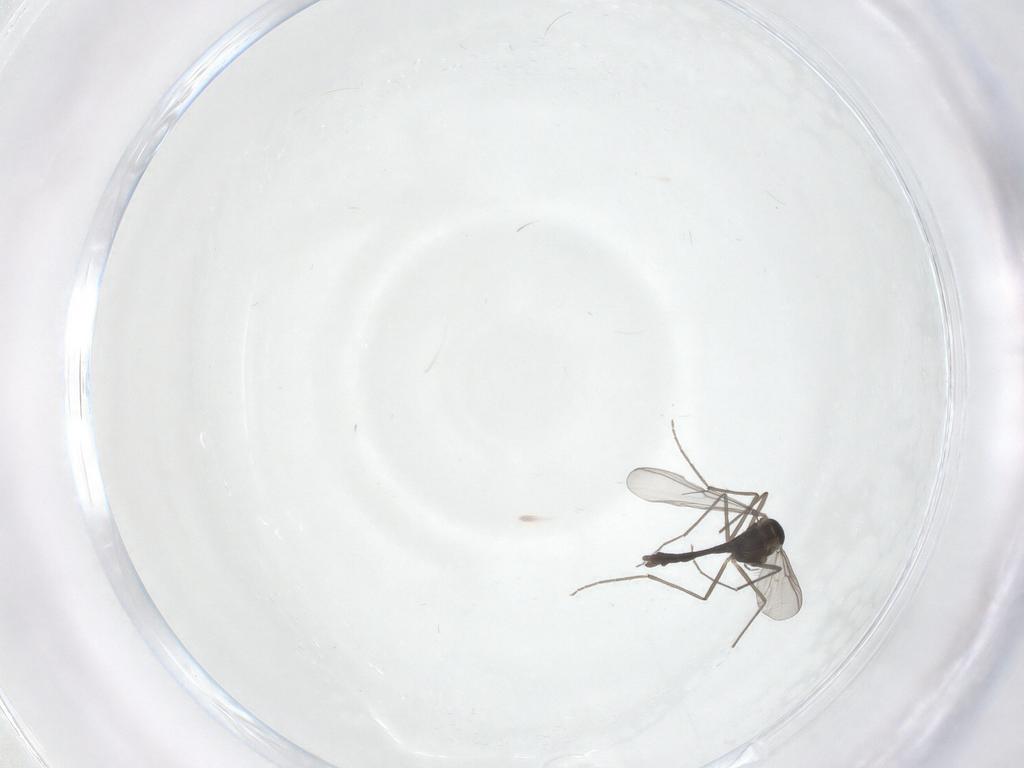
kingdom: Animalia
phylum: Arthropoda
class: Insecta
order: Diptera
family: Chironomidae
